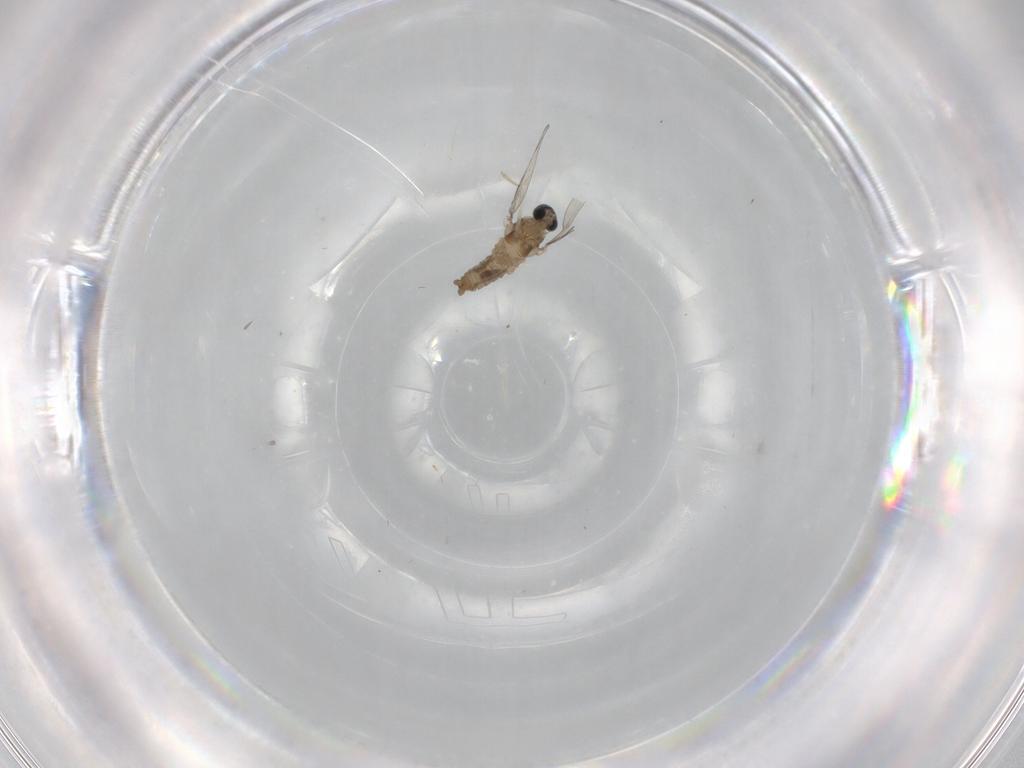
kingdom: Animalia
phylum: Arthropoda
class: Insecta
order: Diptera
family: Cecidomyiidae
